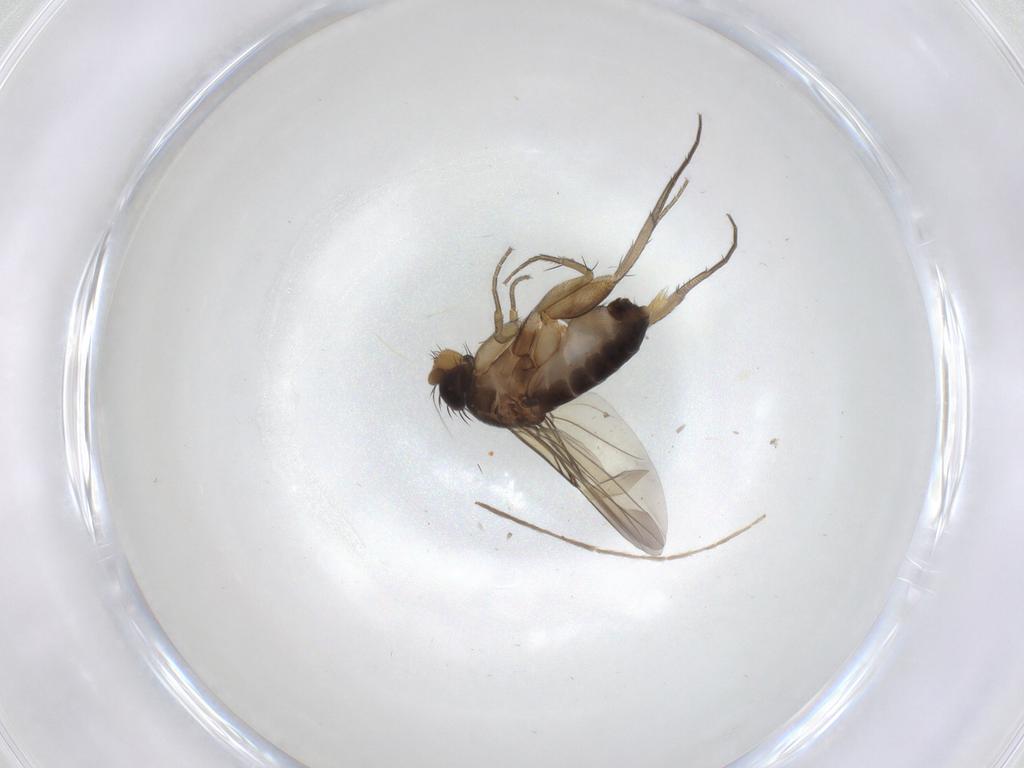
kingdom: Animalia
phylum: Arthropoda
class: Insecta
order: Diptera
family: Phoridae
